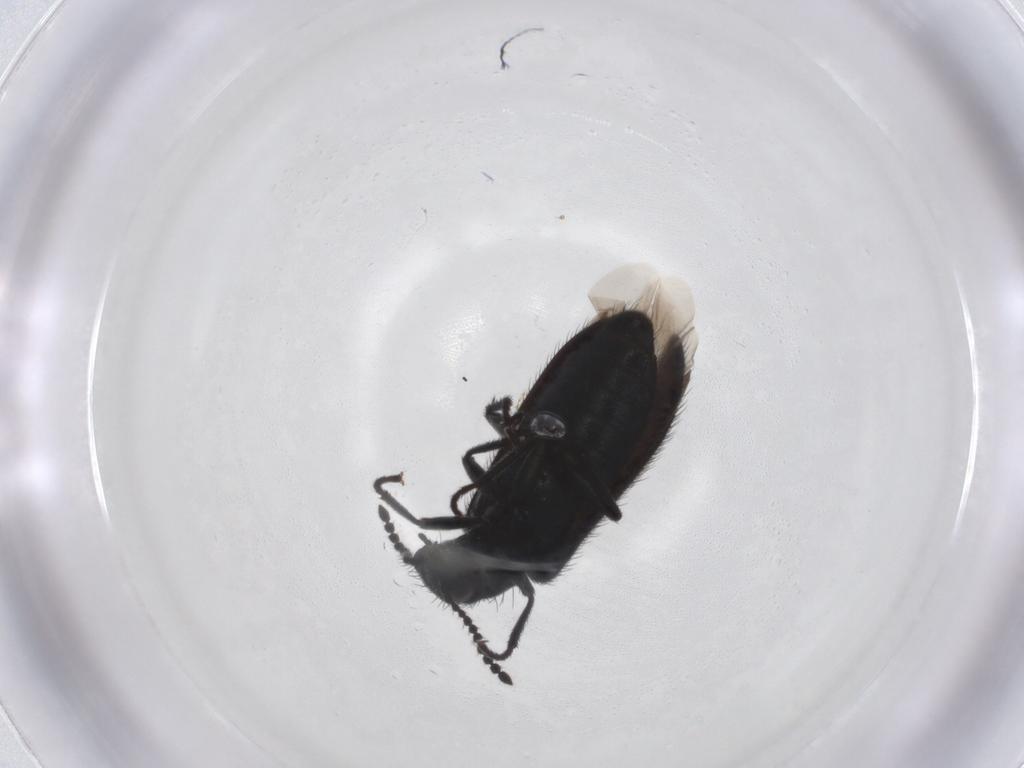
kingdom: Animalia
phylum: Arthropoda
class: Insecta
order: Coleoptera
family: Melyridae
